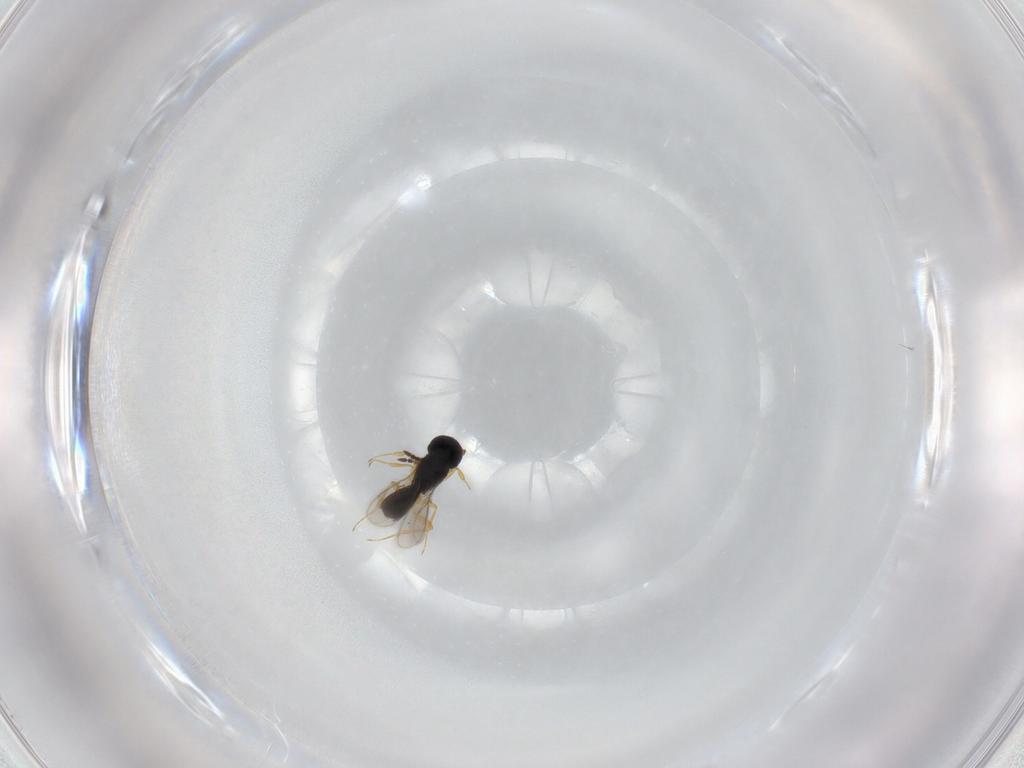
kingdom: Animalia
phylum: Arthropoda
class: Insecta
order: Hymenoptera
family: Scelionidae
